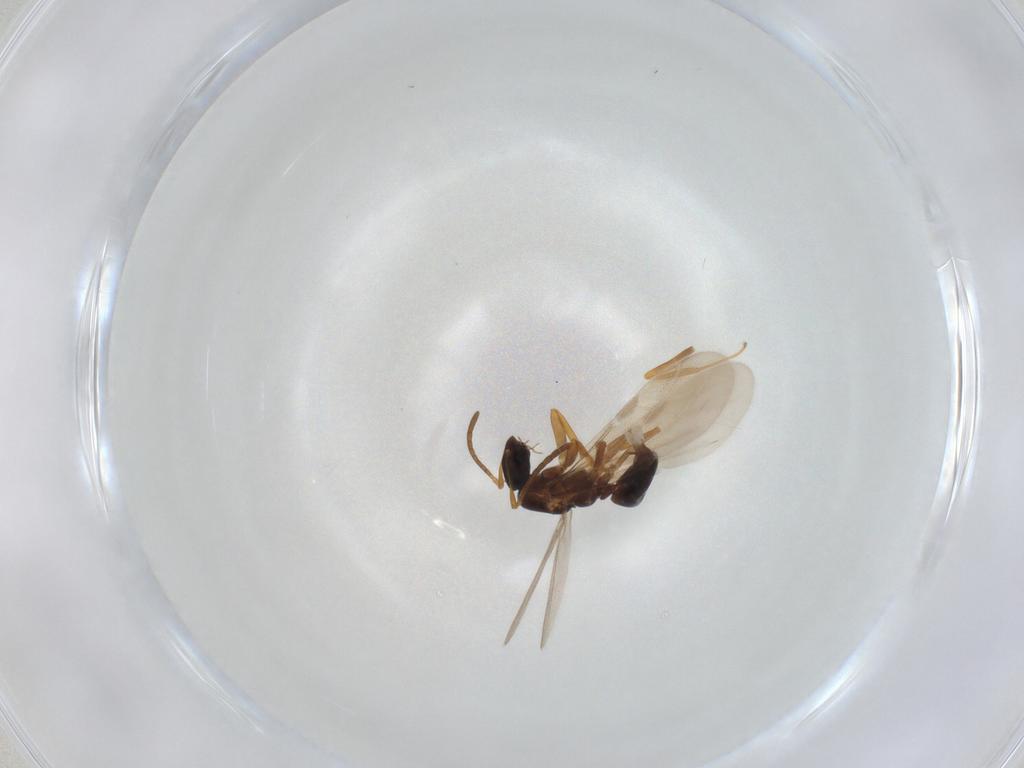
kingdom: Animalia
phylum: Arthropoda
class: Insecta
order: Hymenoptera
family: Formicidae
